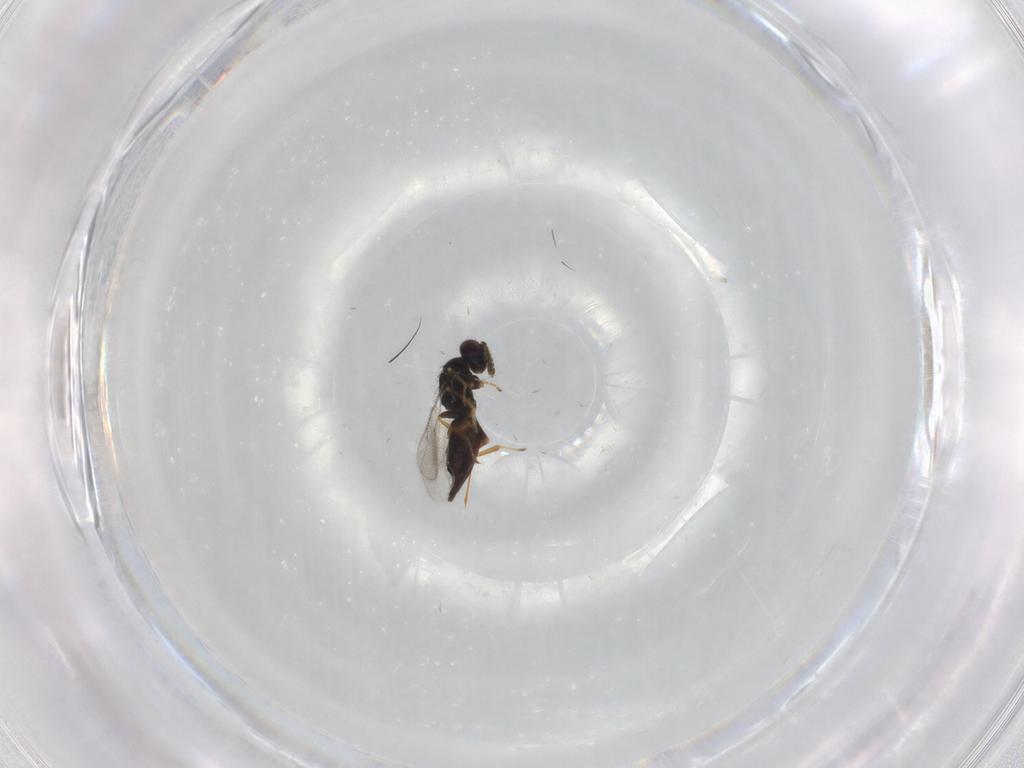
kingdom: Animalia
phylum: Arthropoda
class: Insecta
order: Hymenoptera
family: Eulophidae
